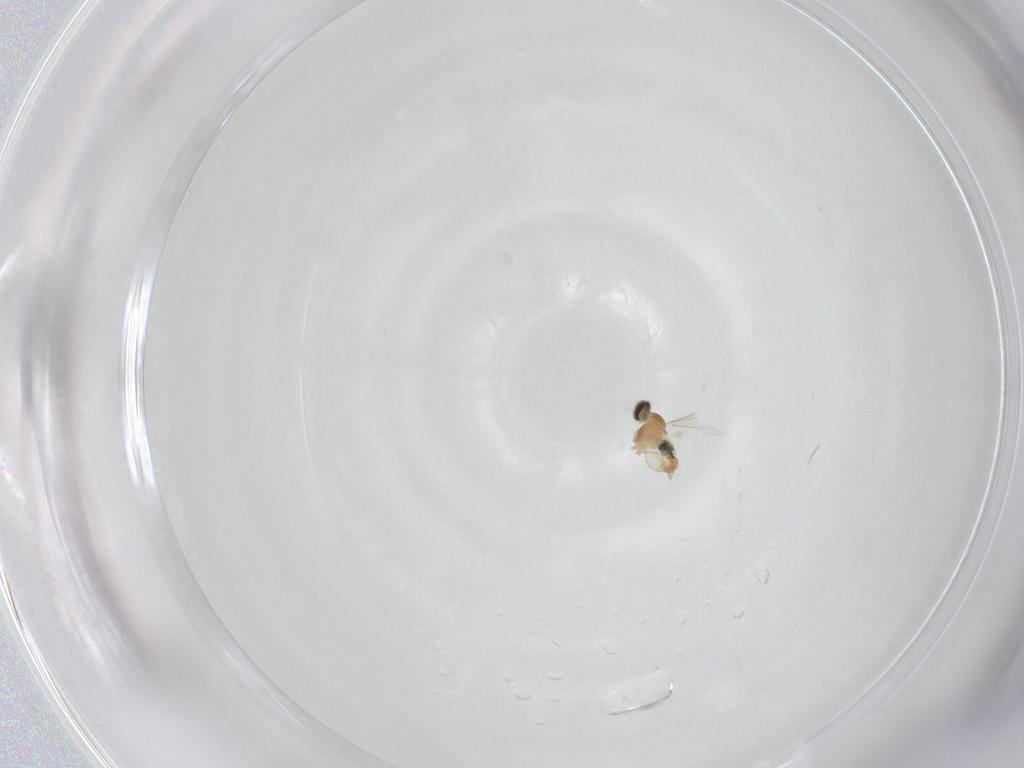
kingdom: Animalia
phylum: Arthropoda
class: Insecta
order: Diptera
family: Cecidomyiidae
